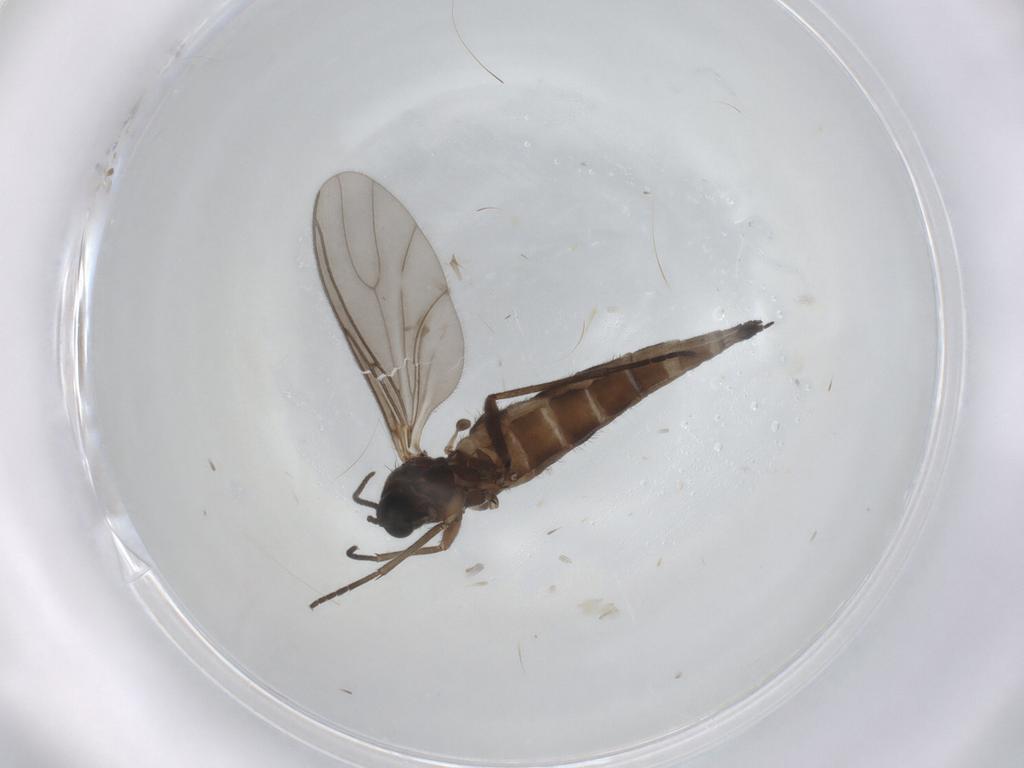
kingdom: Animalia
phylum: Arthropoda
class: Insecta
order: Diptera
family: Sciaridae
